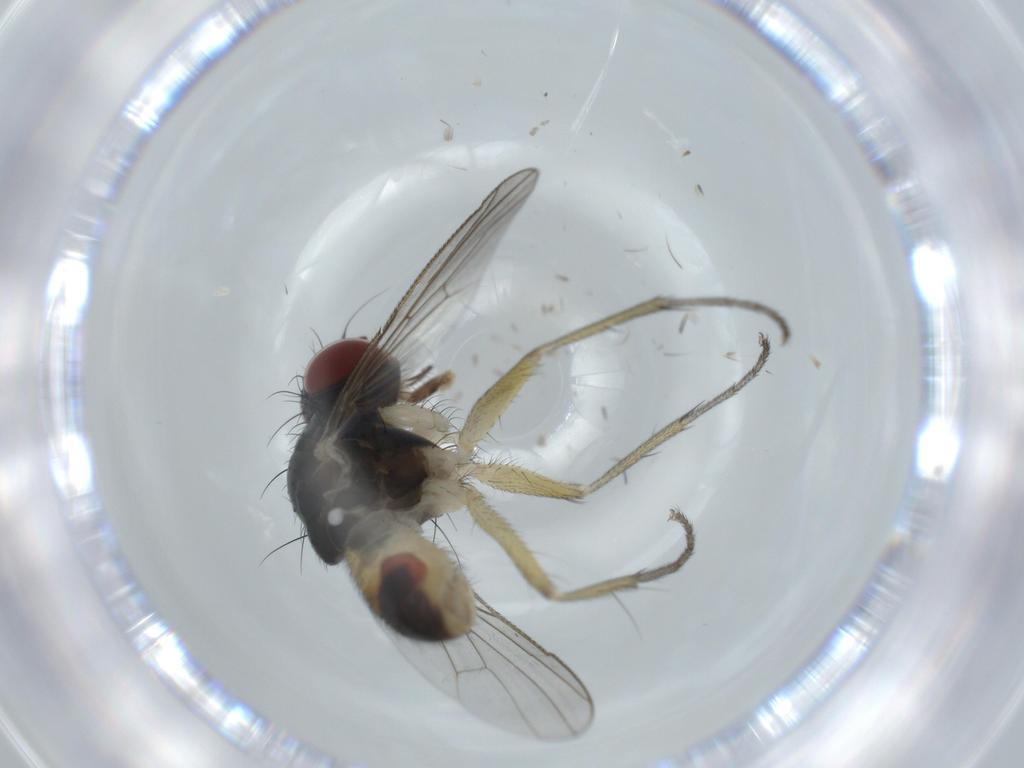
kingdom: Animalia
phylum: Arthropoda
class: Insecta
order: Diptera
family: Muscidae
